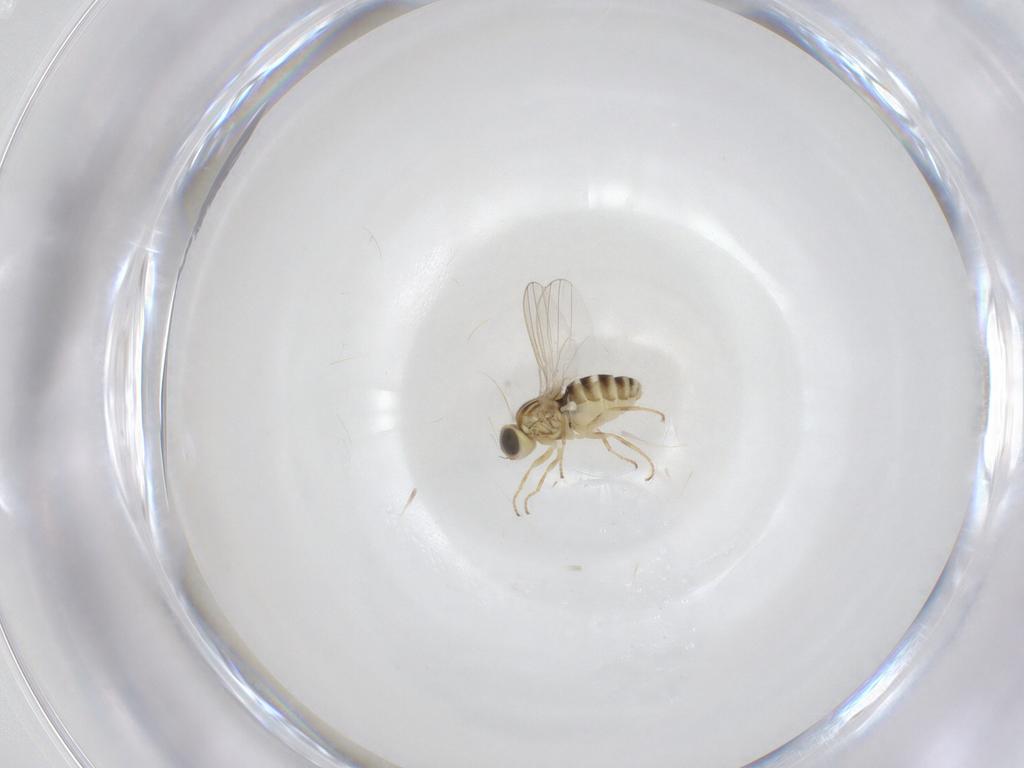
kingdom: Animalia
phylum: Arthropoda
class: Insecta
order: Diptera
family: Chyromyidae
